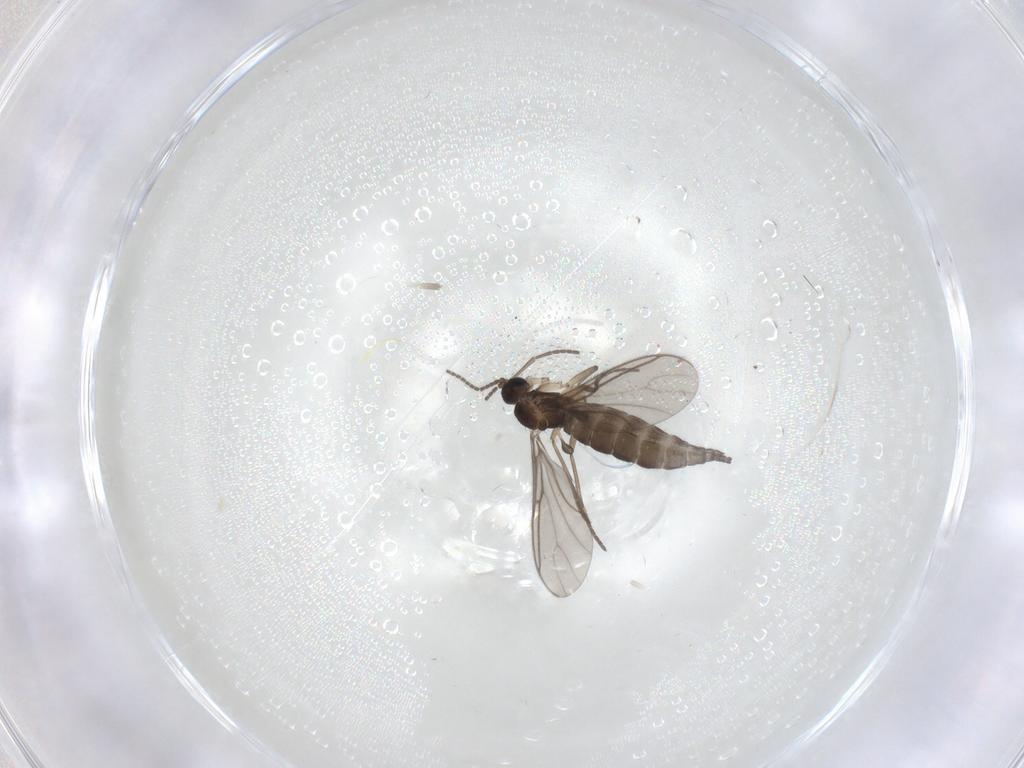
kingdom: Animalia
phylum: Arthropoda
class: Insecta
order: Diptera
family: Sciaridae
